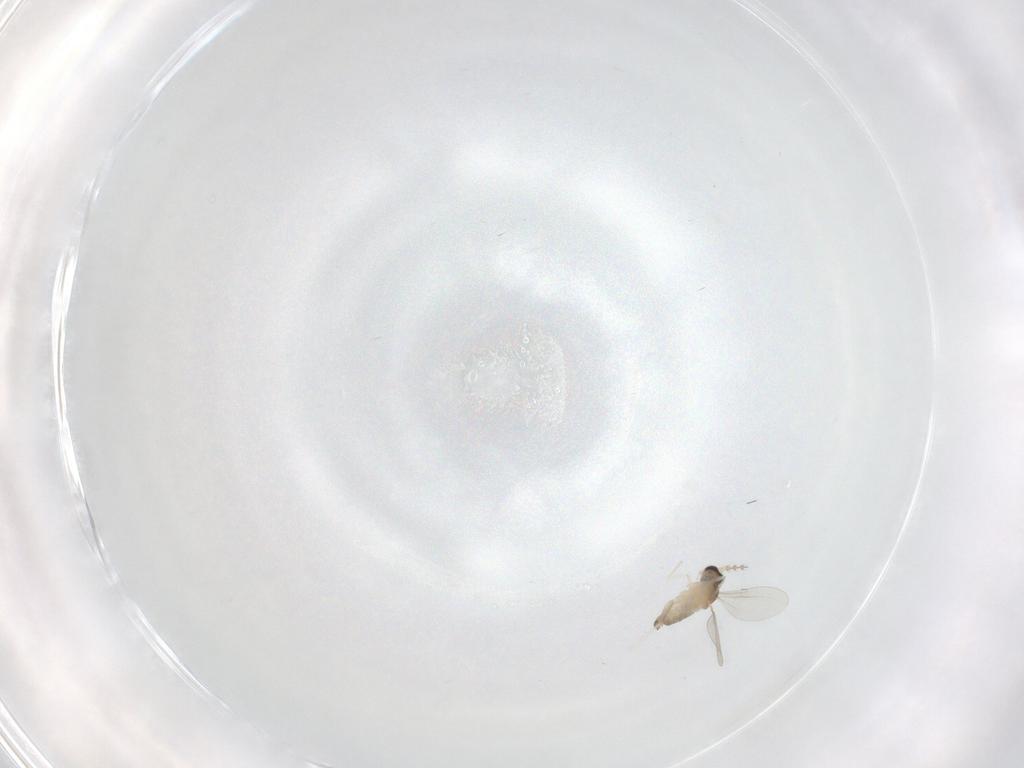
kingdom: Animalia
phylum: Arthropoda
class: Insecta
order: Diptera
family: Cecidomyiidae
